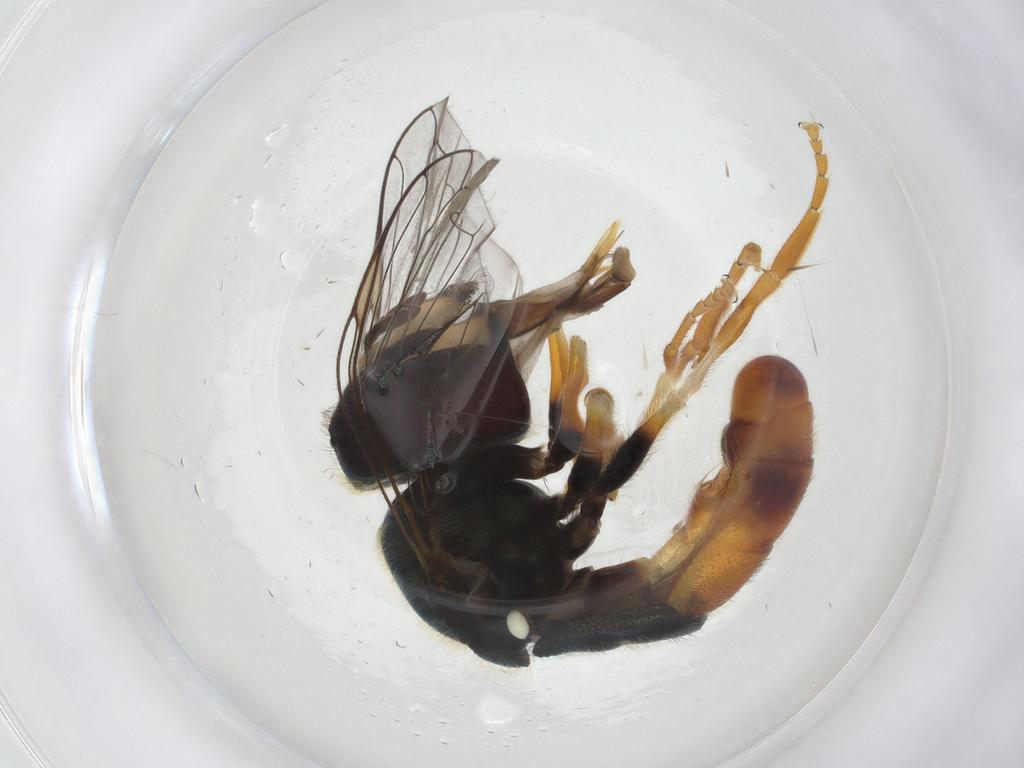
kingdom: Animalia
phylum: Arthropoda
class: Insecta
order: Diptera
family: Syrphidae
